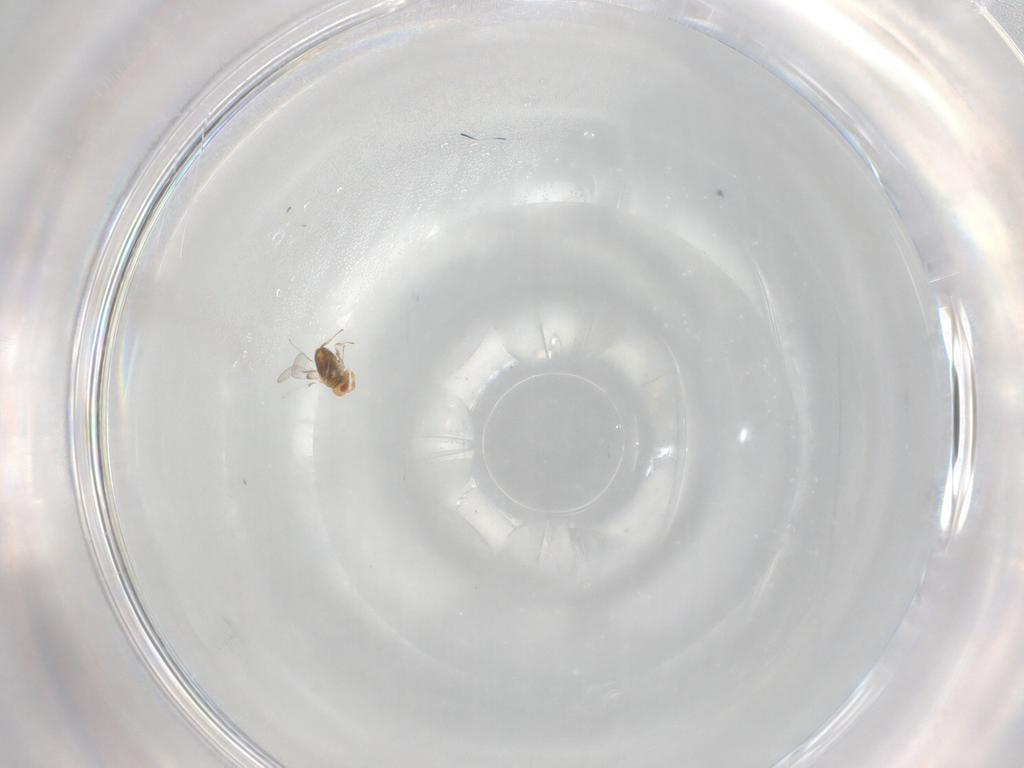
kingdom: Animalia
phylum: Arthropoda
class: Insecta
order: Hymenoptera
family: Trichogrammatidae
